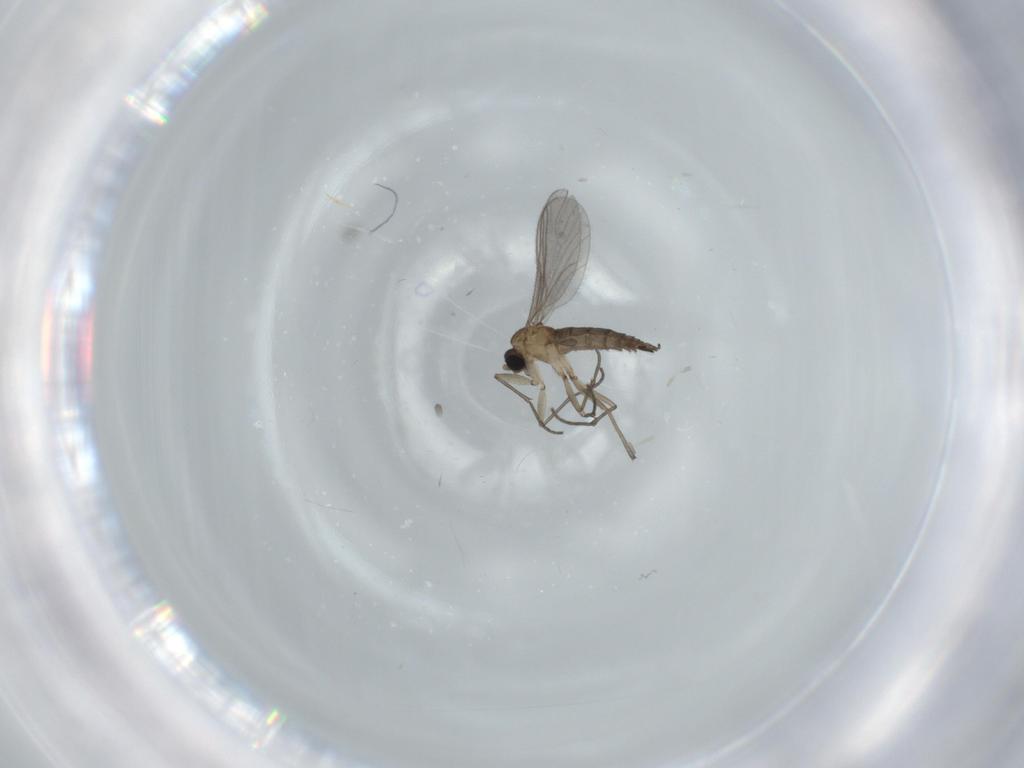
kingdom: Animalia
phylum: Arthropoda
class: Insecta
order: Diptera
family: Sciaridae
